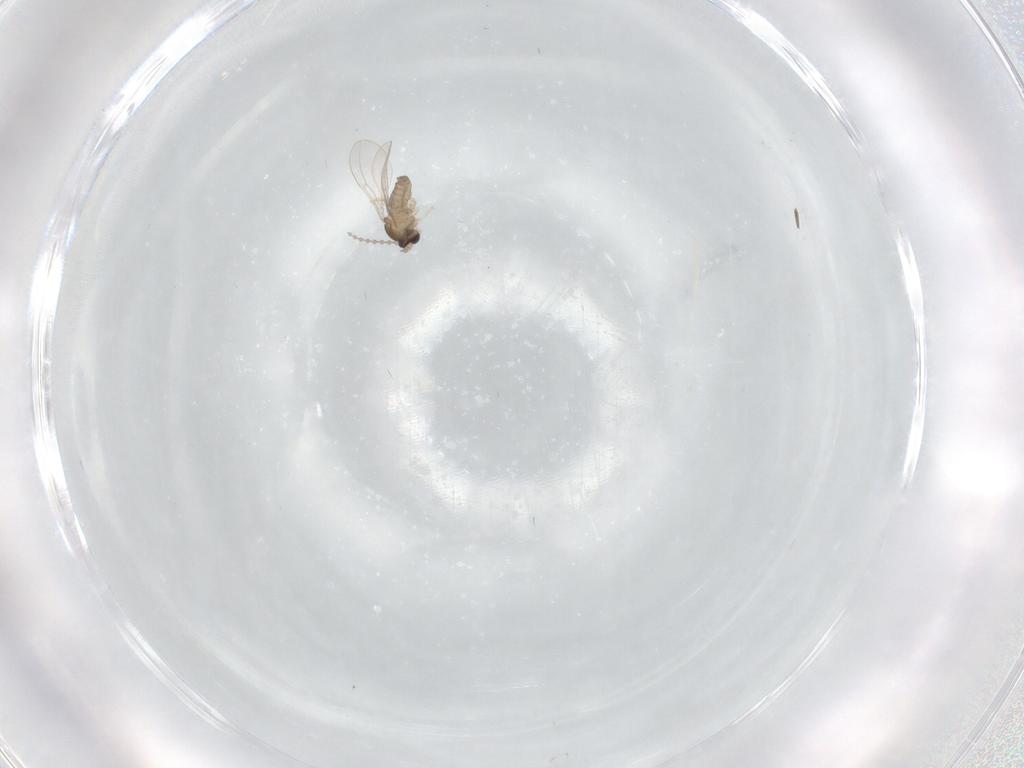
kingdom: Animalia
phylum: Arthropoda
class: Insecta
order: Diptera
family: Cecidomyiidae
